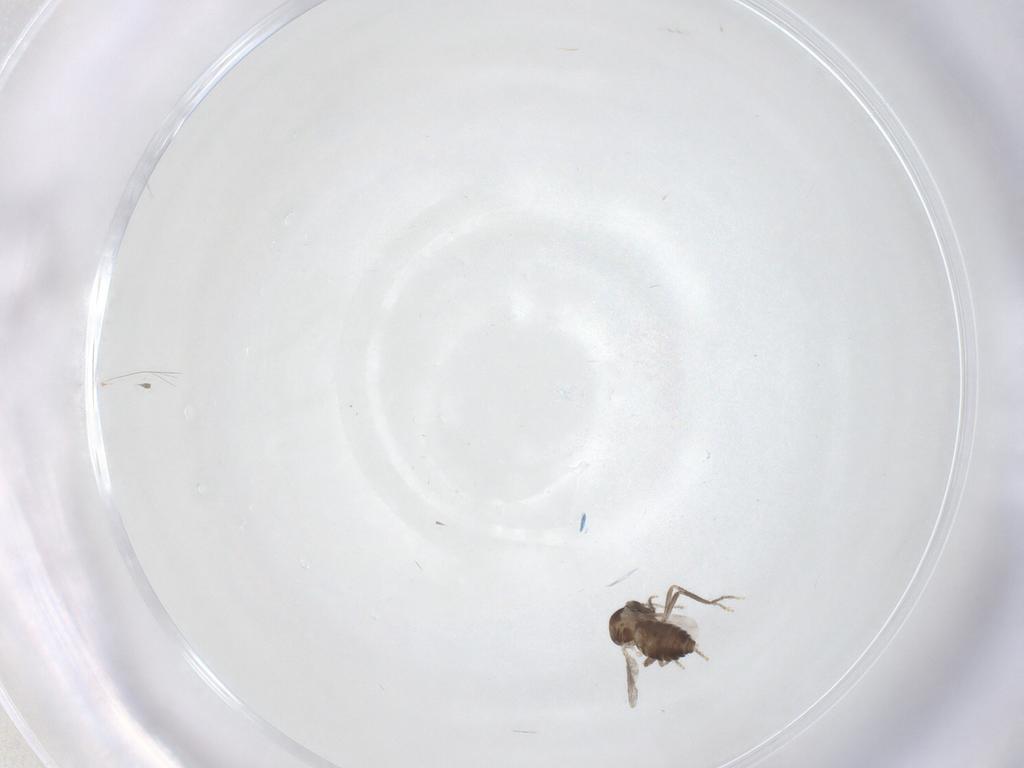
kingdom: Animalia
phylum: Arthropoda
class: Insecta
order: Diptera
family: Ceratopogonidae
